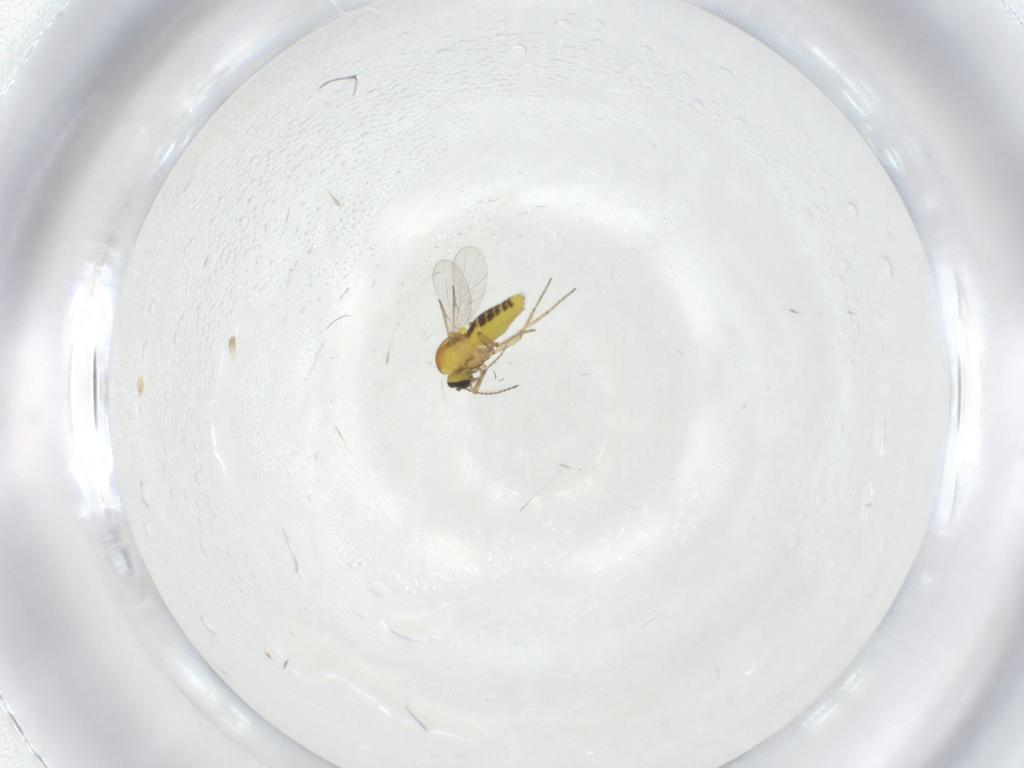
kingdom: Animalia
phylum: Arthropoda
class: Insecta
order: Diptera
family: Ceratopogonidae
